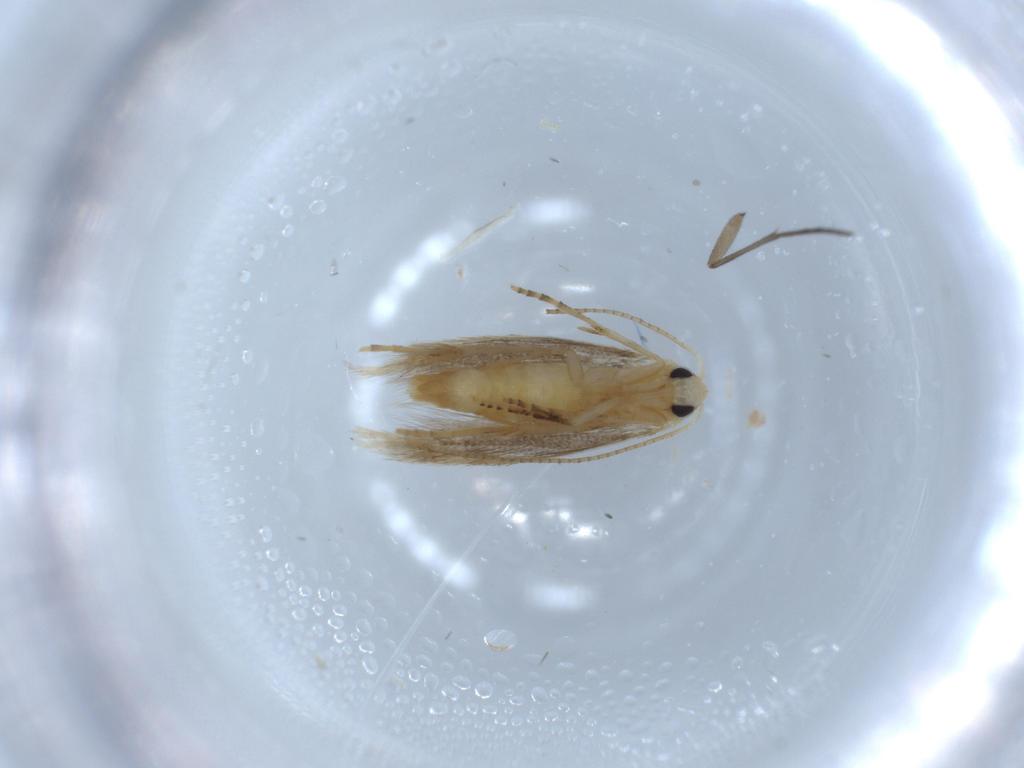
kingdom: Animalia
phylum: Arthropoda
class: Insecta
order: Lepidoptera
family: Bucculatricidae
